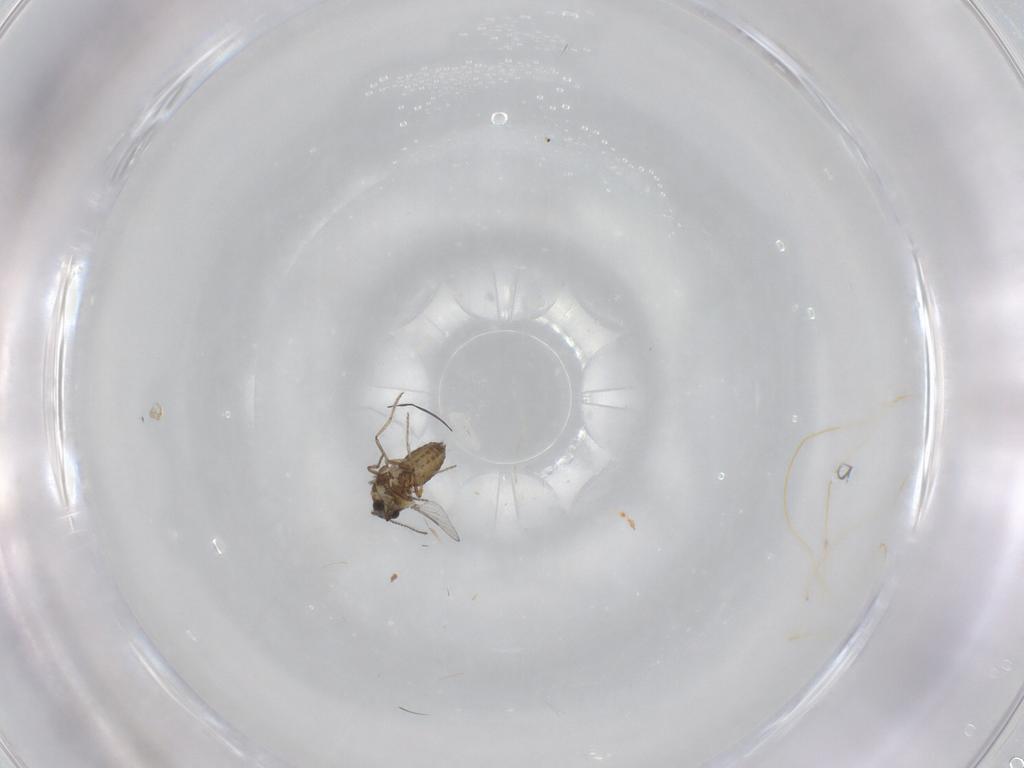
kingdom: Animalia
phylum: Arthropoda
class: Insecta
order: Diptera
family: Ceratopogonidae
